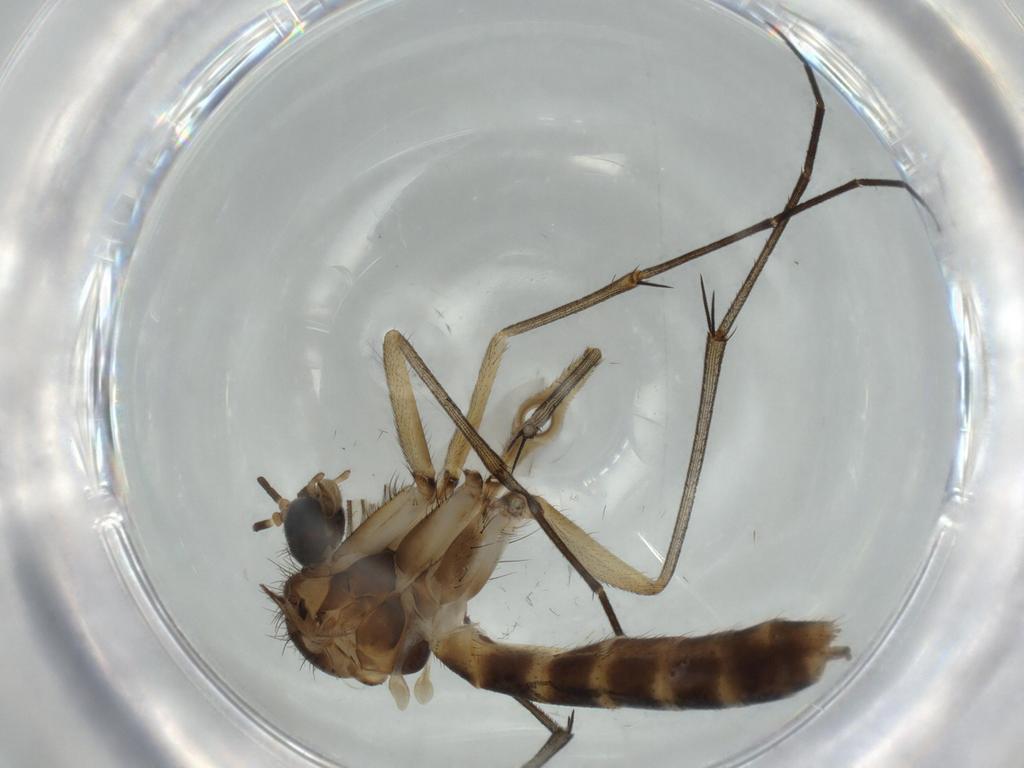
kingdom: Animalia
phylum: Arthropoda
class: Insecta
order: Diptera
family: Mycetophilidae
